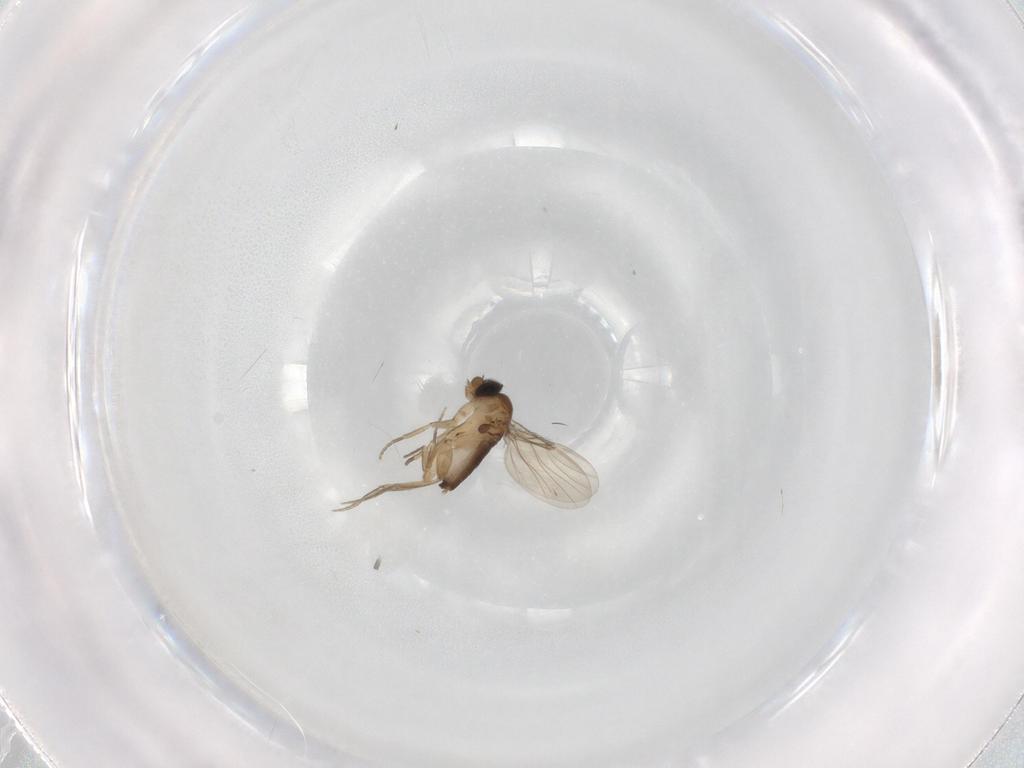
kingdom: Animalia
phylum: Arthropoda
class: Insecta
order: Diptera
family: Phoridae
